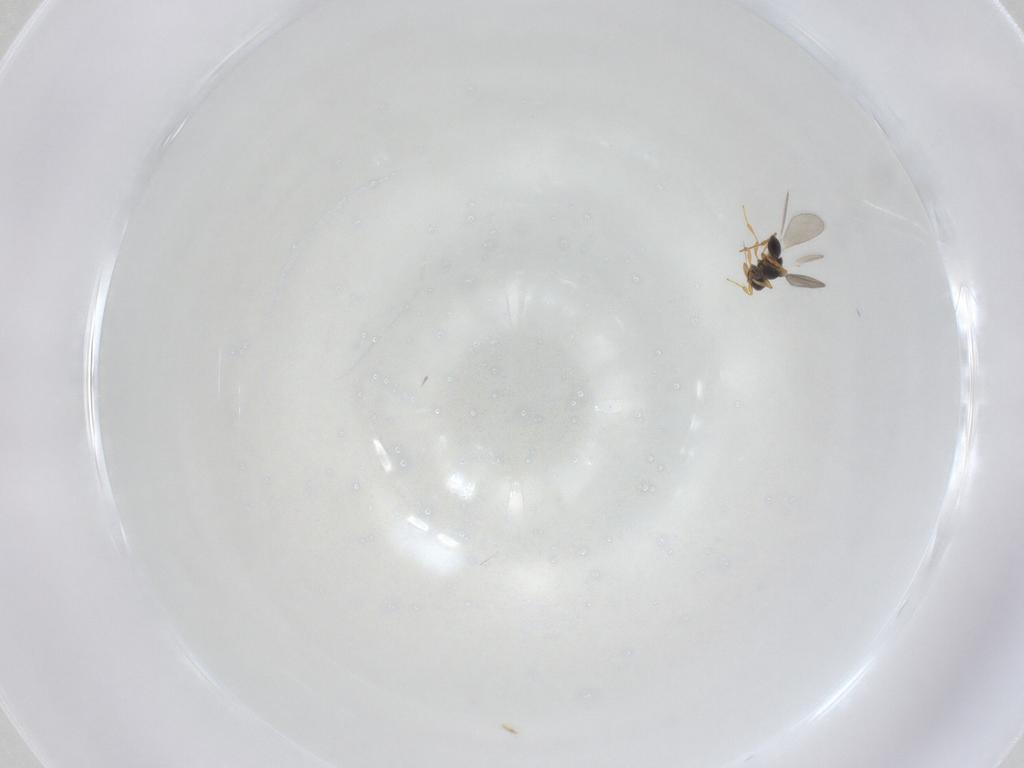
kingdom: Animalia
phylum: Arthropoda
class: Insecta
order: Hymenoptera
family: Platygastridae
